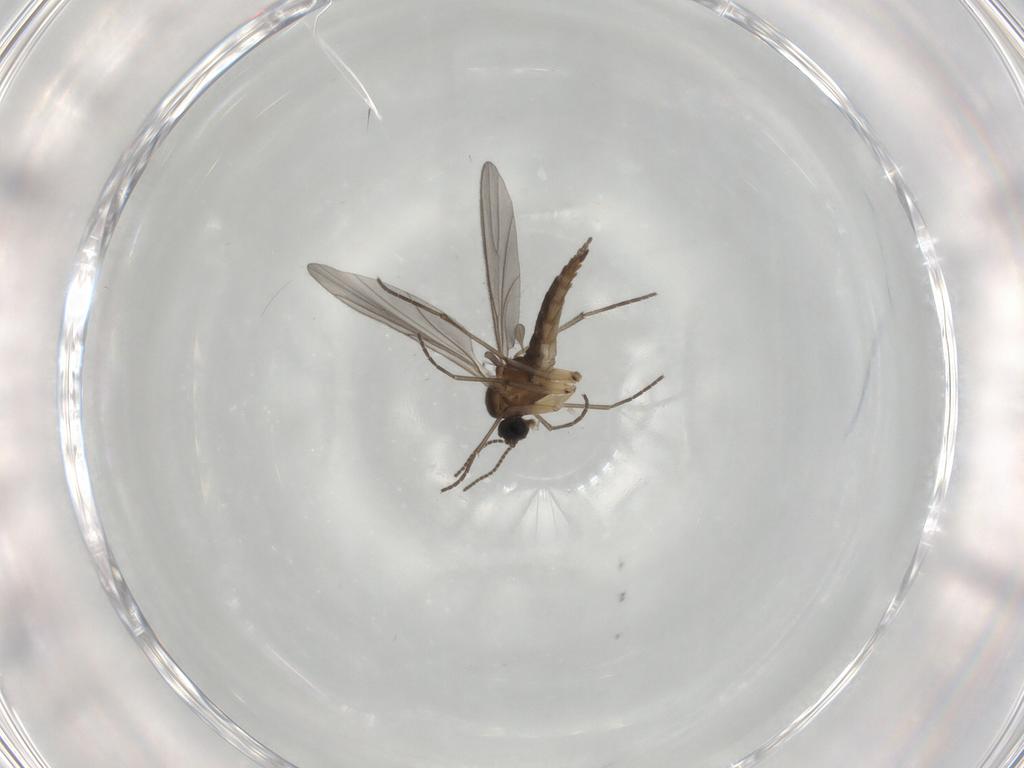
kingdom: Animalia
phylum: Arthropoda
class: Insecta
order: Diptera
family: Sciaridae
